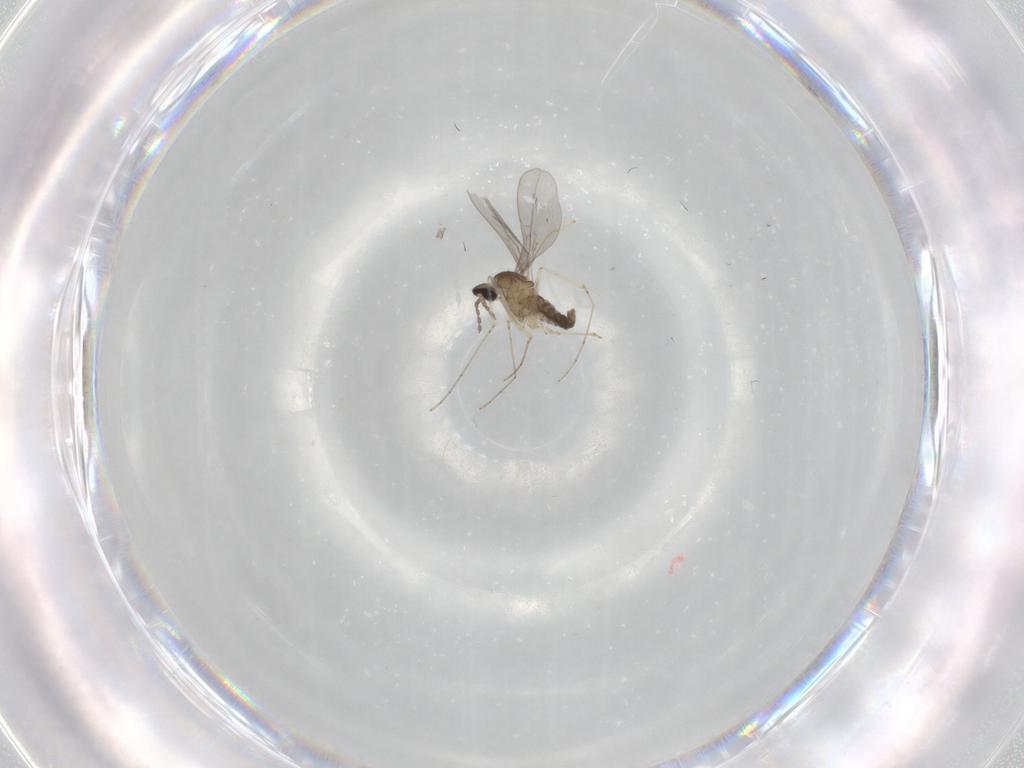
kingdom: Animalia
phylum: Arthropoda
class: Insecta
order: Diptera
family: Cecidomyiidae
